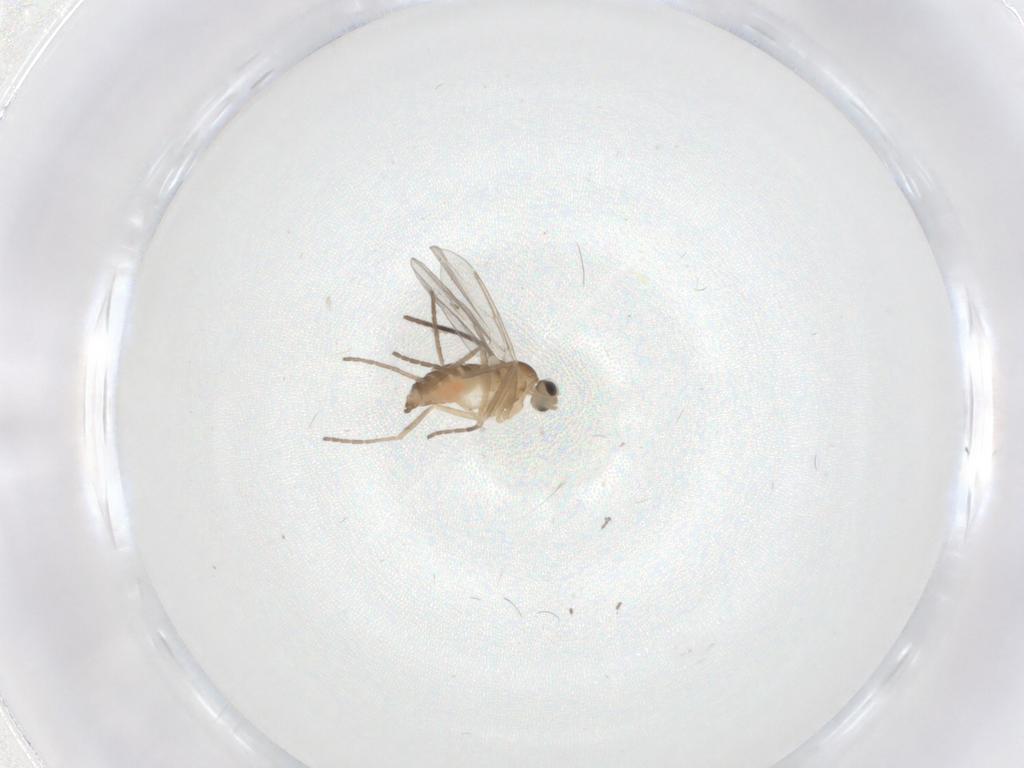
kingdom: Animalia
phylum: Arthropoda
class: Insecta
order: Diptera
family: Cecidomyiidae
